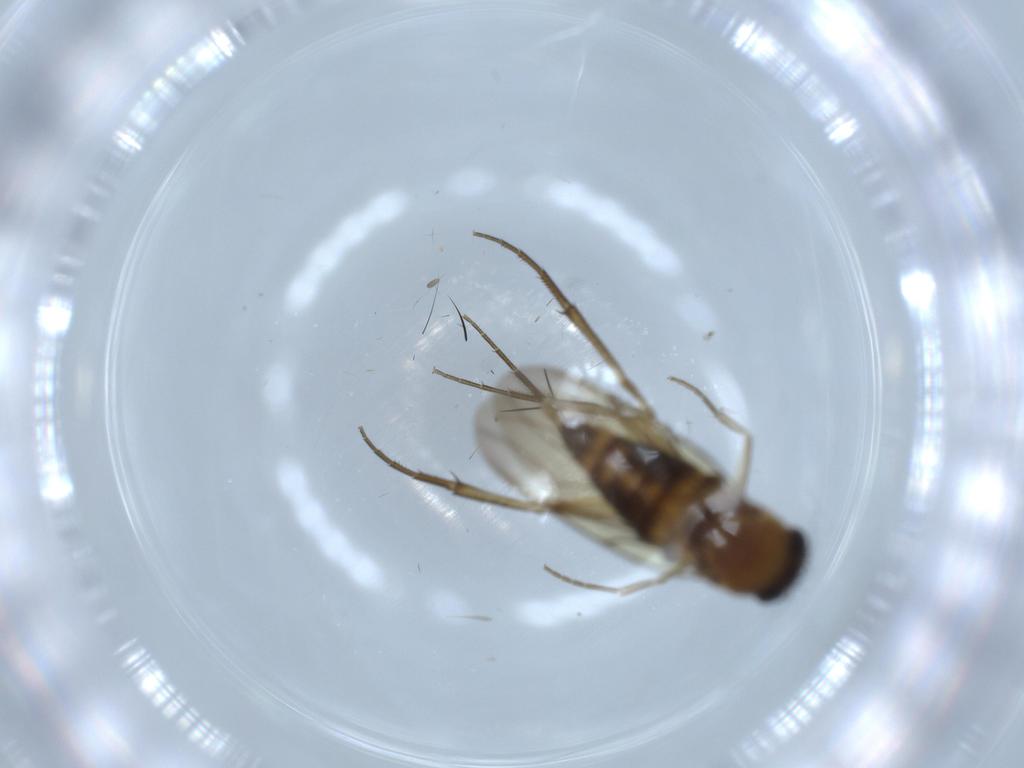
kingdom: Animalia
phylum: Arthropoda
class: Insecta
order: Diptera
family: Phoridae
